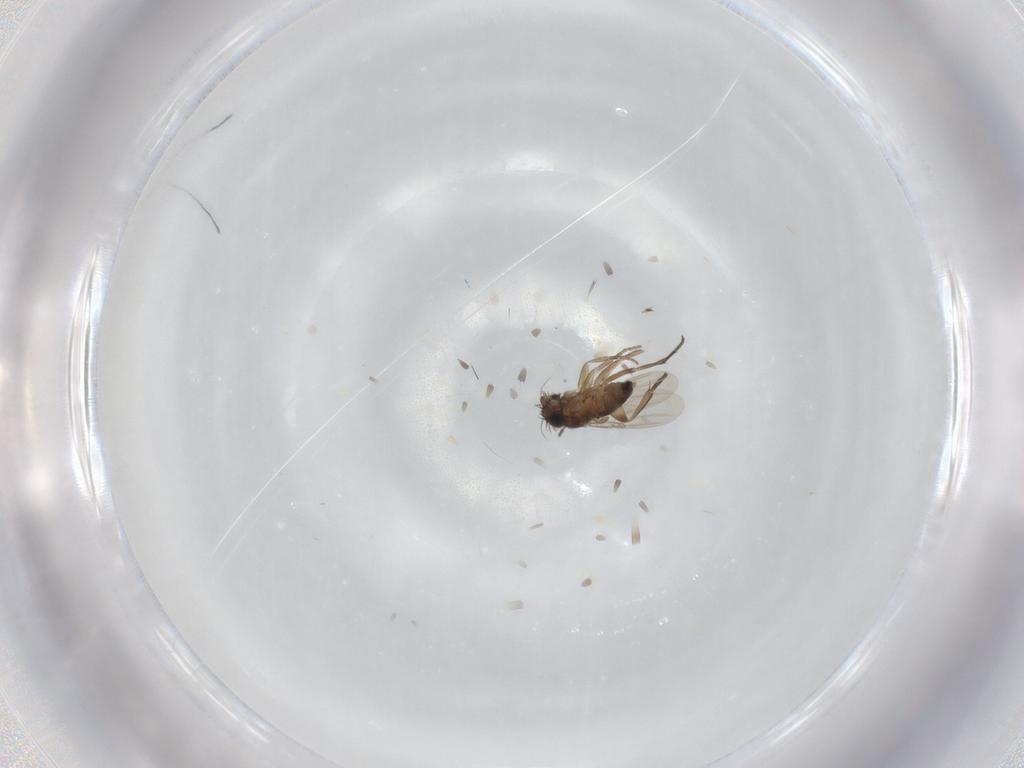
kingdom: Animalia
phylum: Arthropoda
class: Insecta
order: Diptera
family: Phoridae
